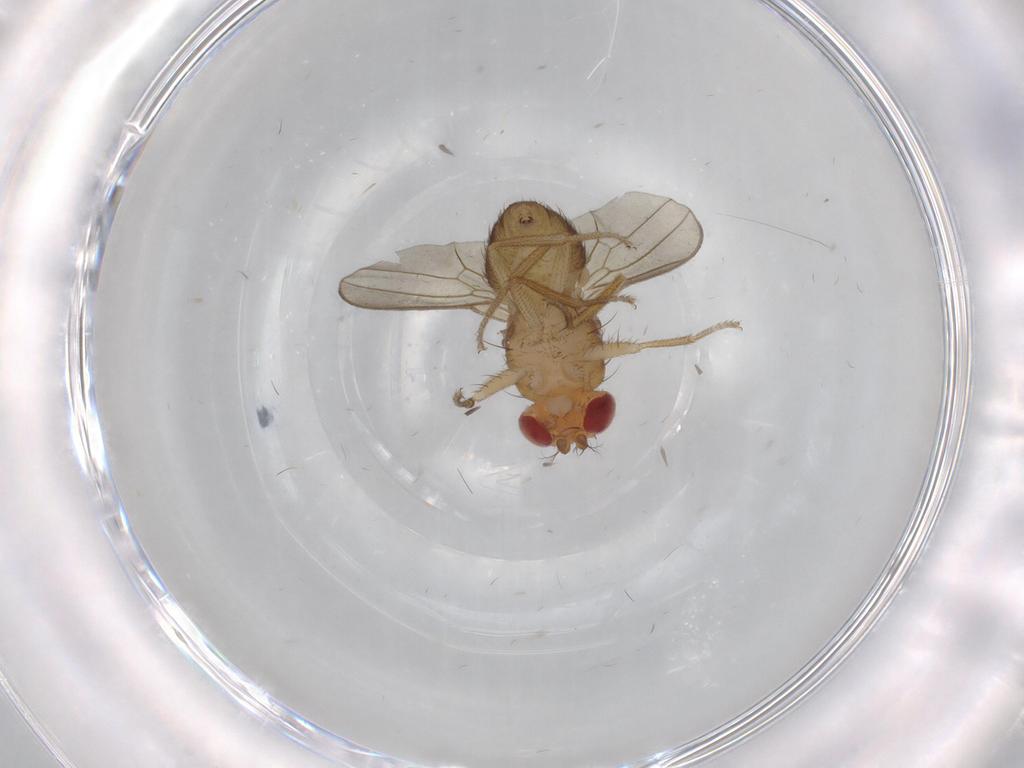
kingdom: Animalia
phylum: Arthropoda
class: Insecta
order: Diptera
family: Drosophilidae
